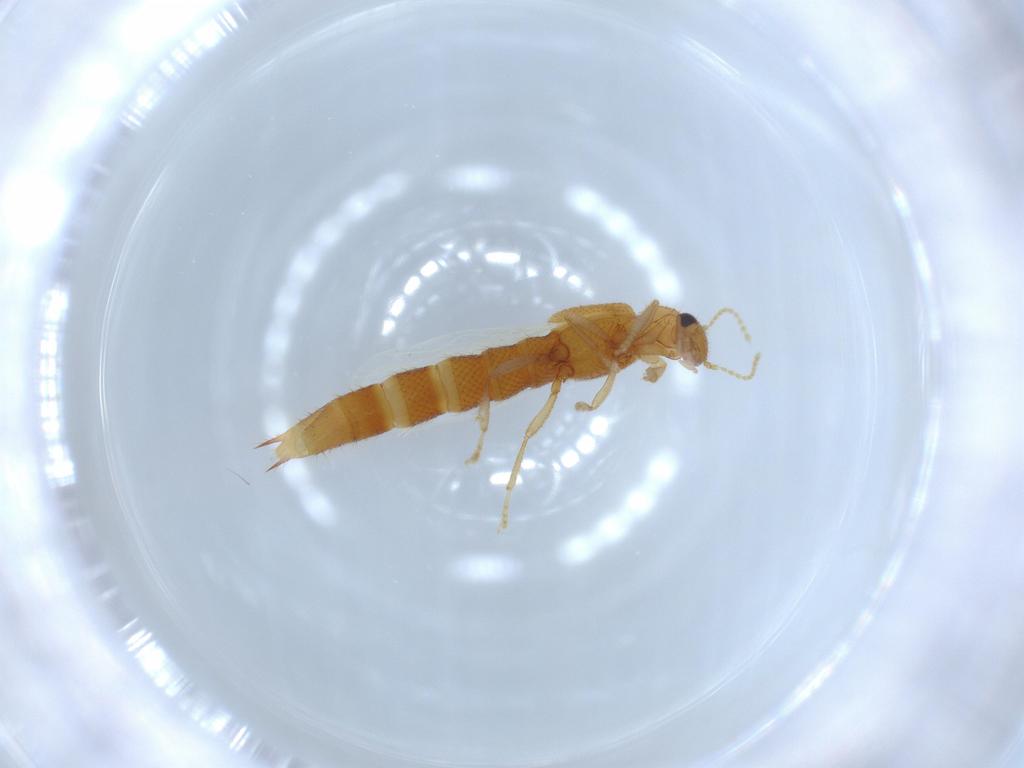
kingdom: Animalia
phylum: Arthropoda
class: Insecta
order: Coleoptera
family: Staphylinidae
